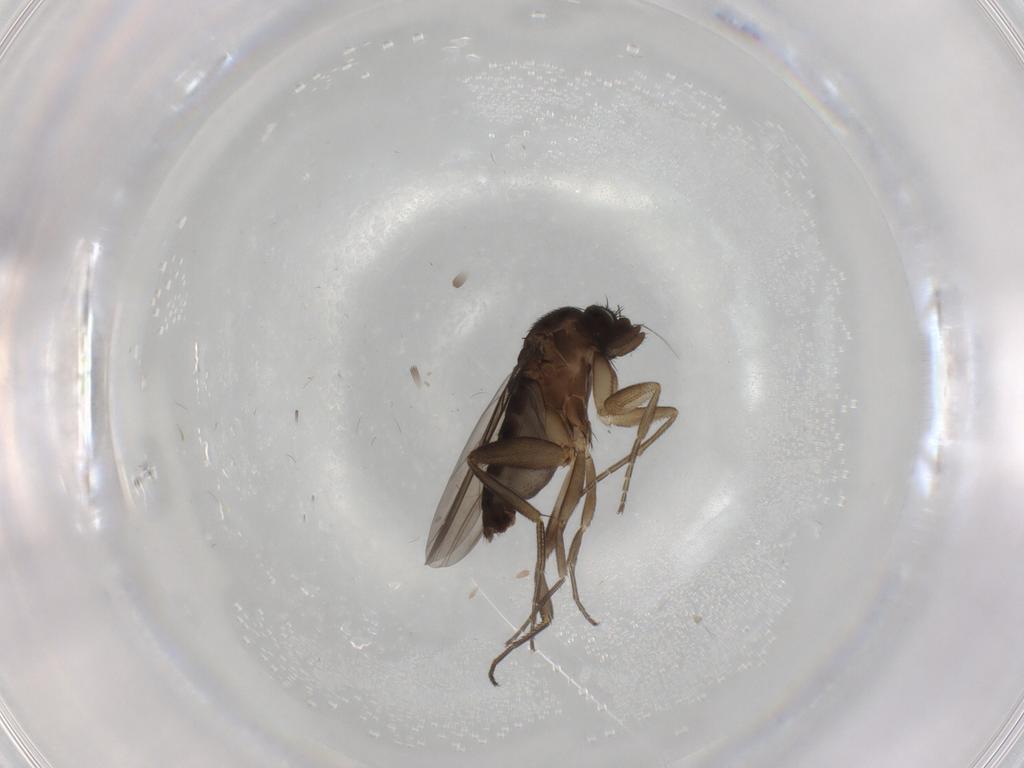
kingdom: Animalia
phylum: Arthropoda
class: Insecta
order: Diptera
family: Phoridae
